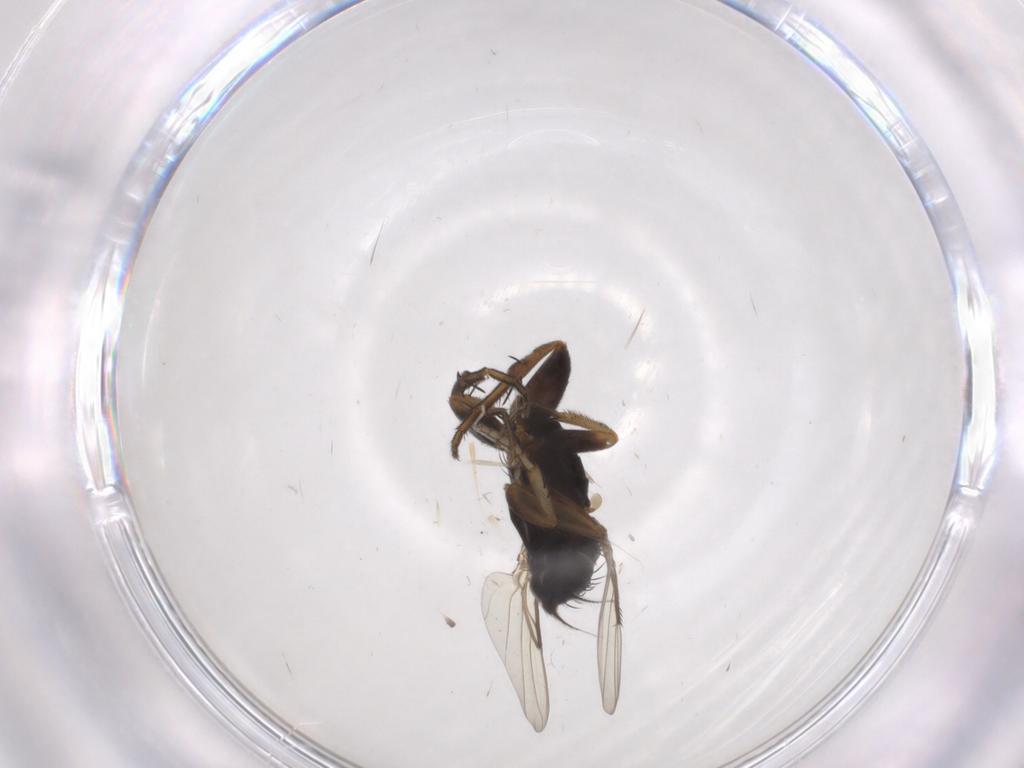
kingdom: Animalia
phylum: Arthropoda
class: Insecta
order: Diptera
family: Phoridae
